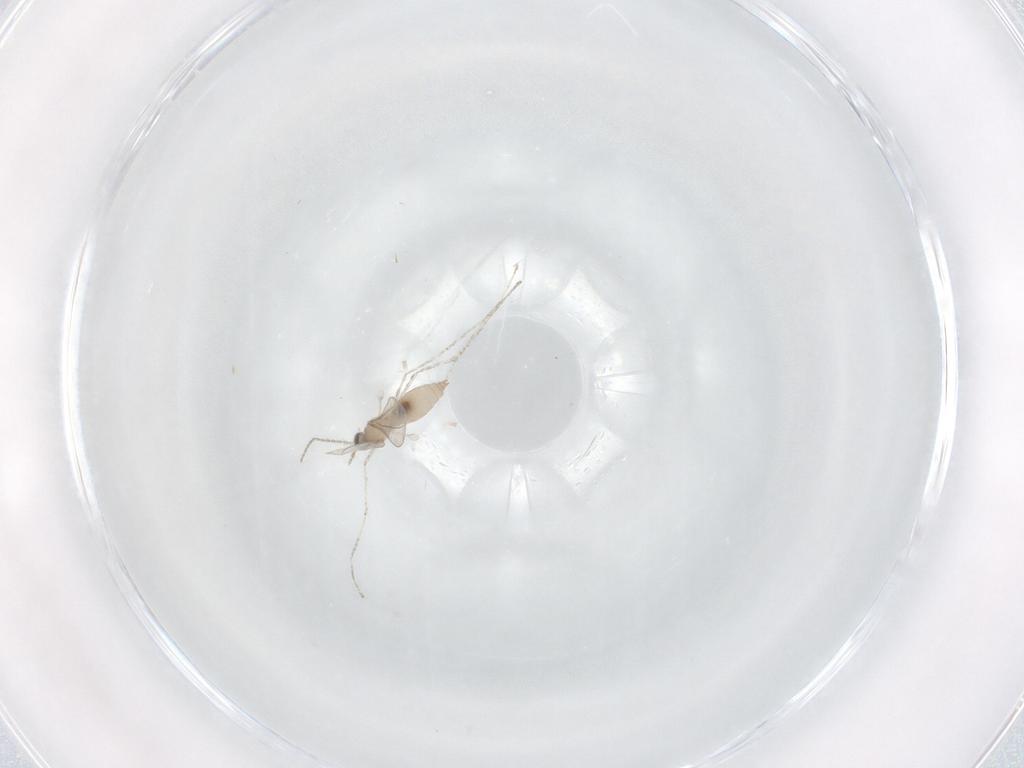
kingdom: Animalia
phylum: Arthropoda
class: Insecta
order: Diptera
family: Cecidomyiidae
